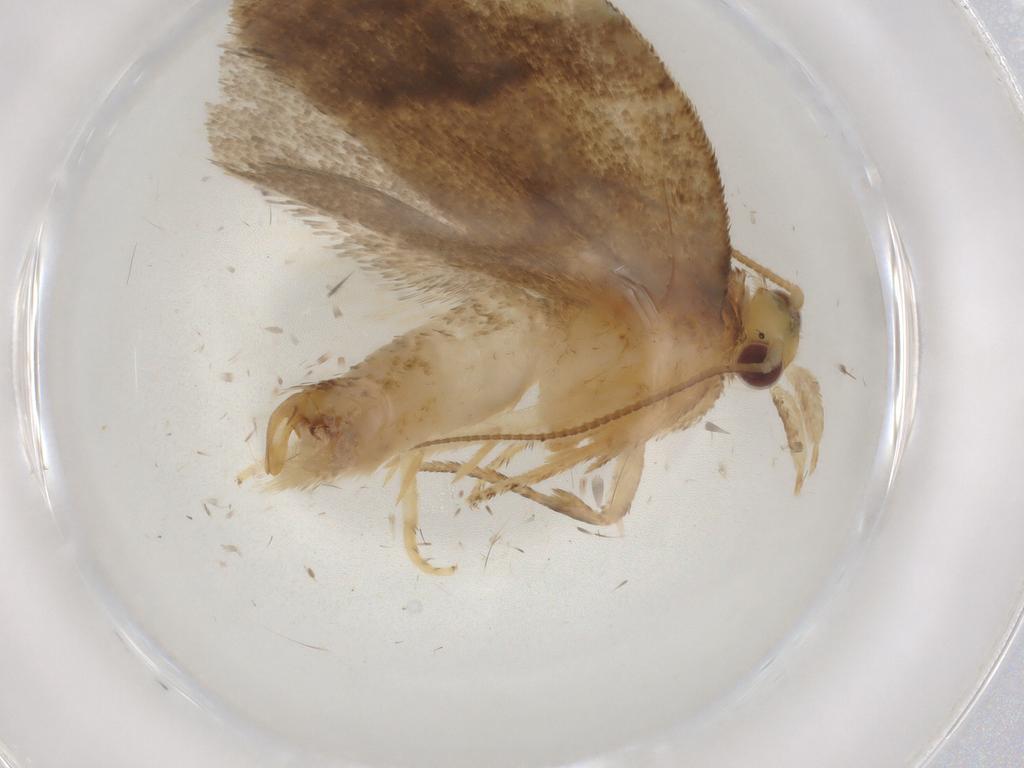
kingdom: Animalia
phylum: Arthropoda
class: Insecta
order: Lepidoptera
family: Tortricidae
